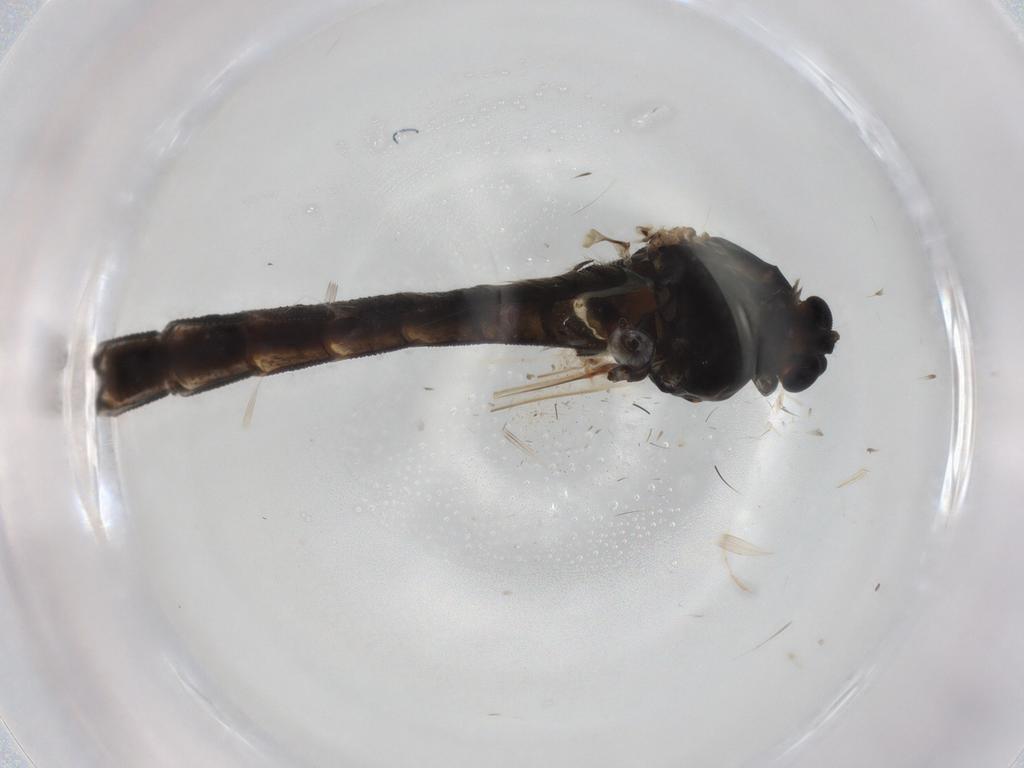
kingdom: Animalia
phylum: Arthropoda
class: Insecta
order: Diptera
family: Chironomidae
